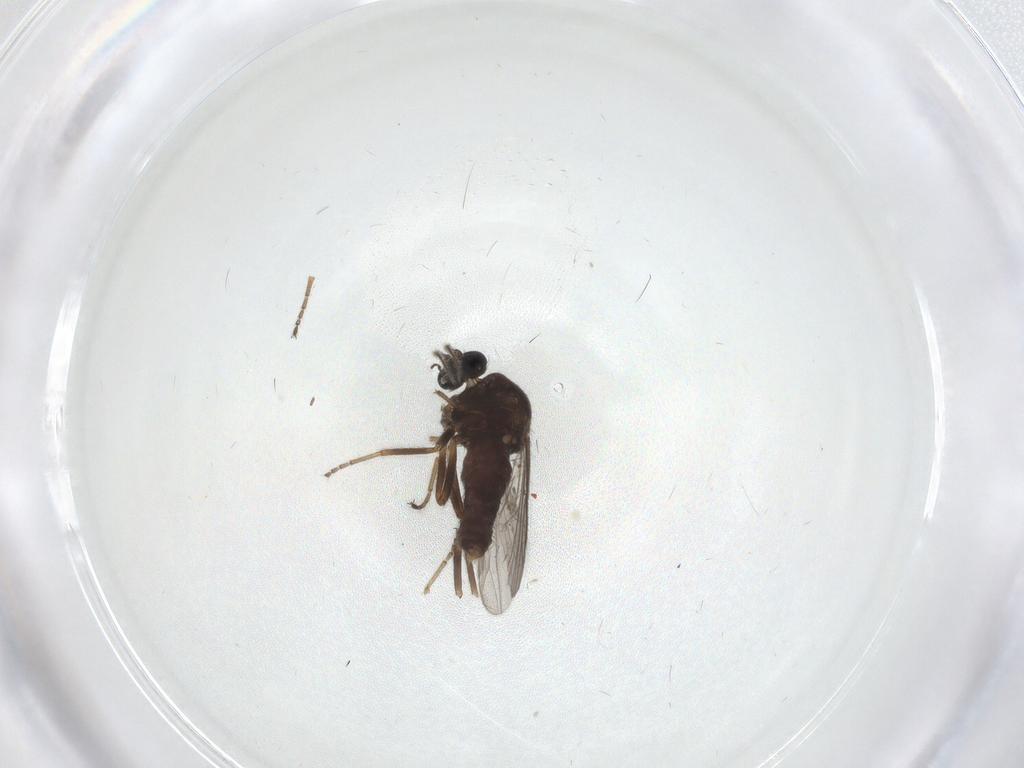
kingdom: Animalia
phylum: Arthropoda
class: Insecta
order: Diptera
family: Ceratopogonidae
